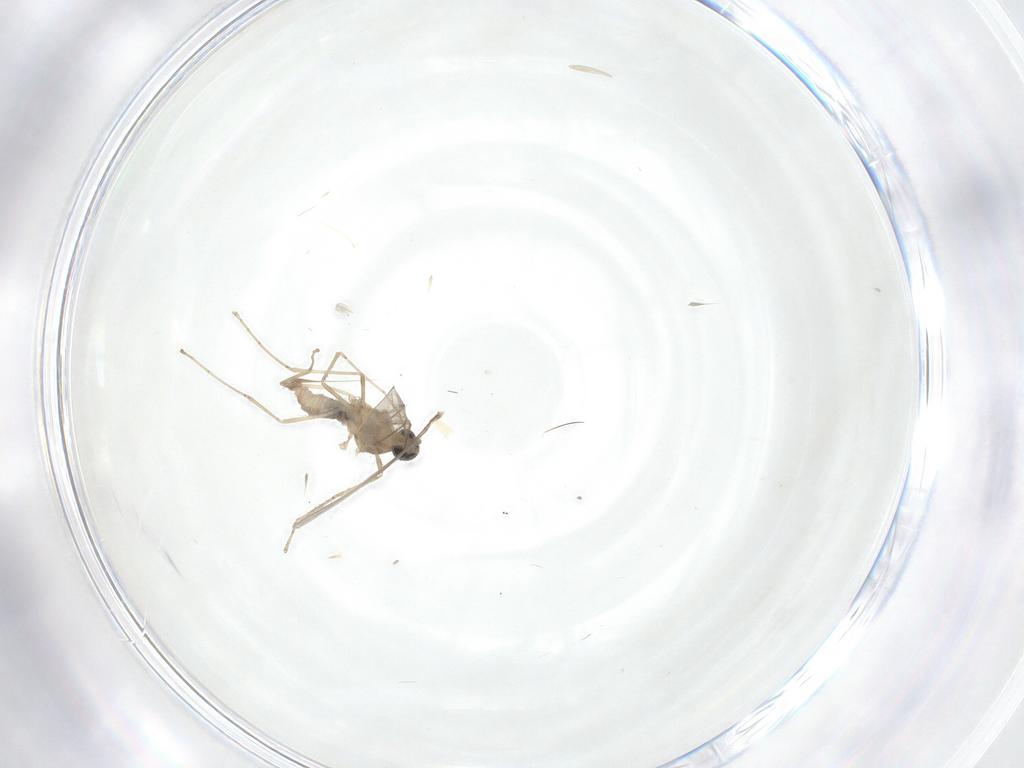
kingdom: Animalia
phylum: Arthropoda
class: Insecta
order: Diptera
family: Cecidomyiidae
